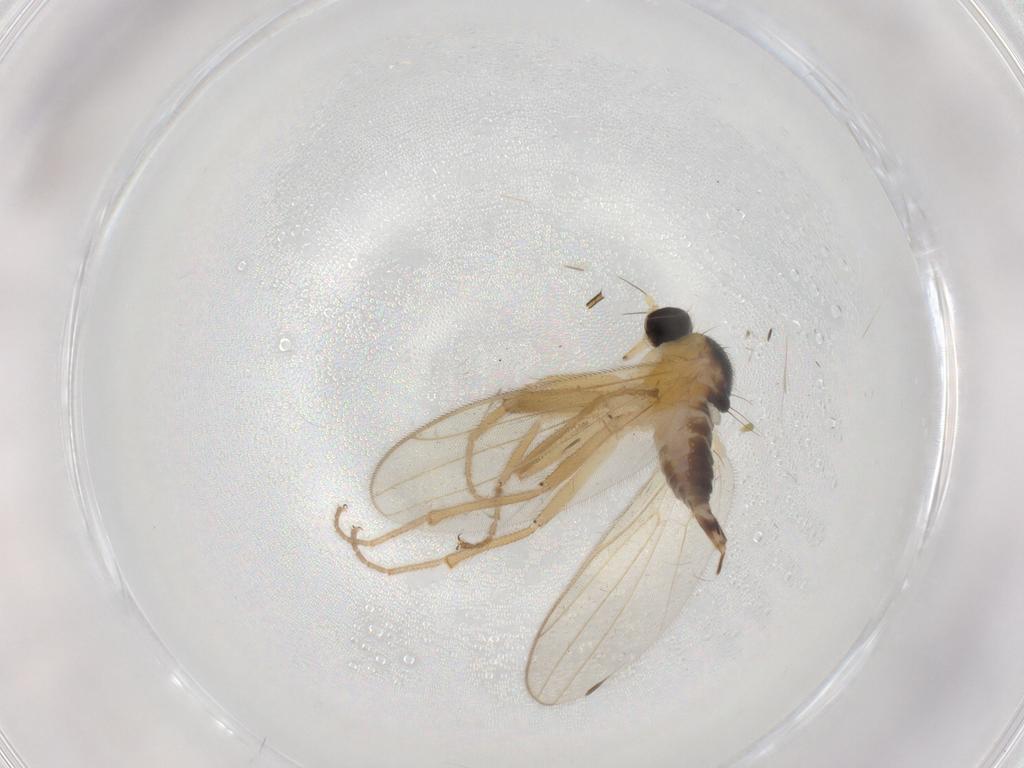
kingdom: Animalia
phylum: Arthropoda
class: Insecta
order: Diptera
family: Hybotidae
